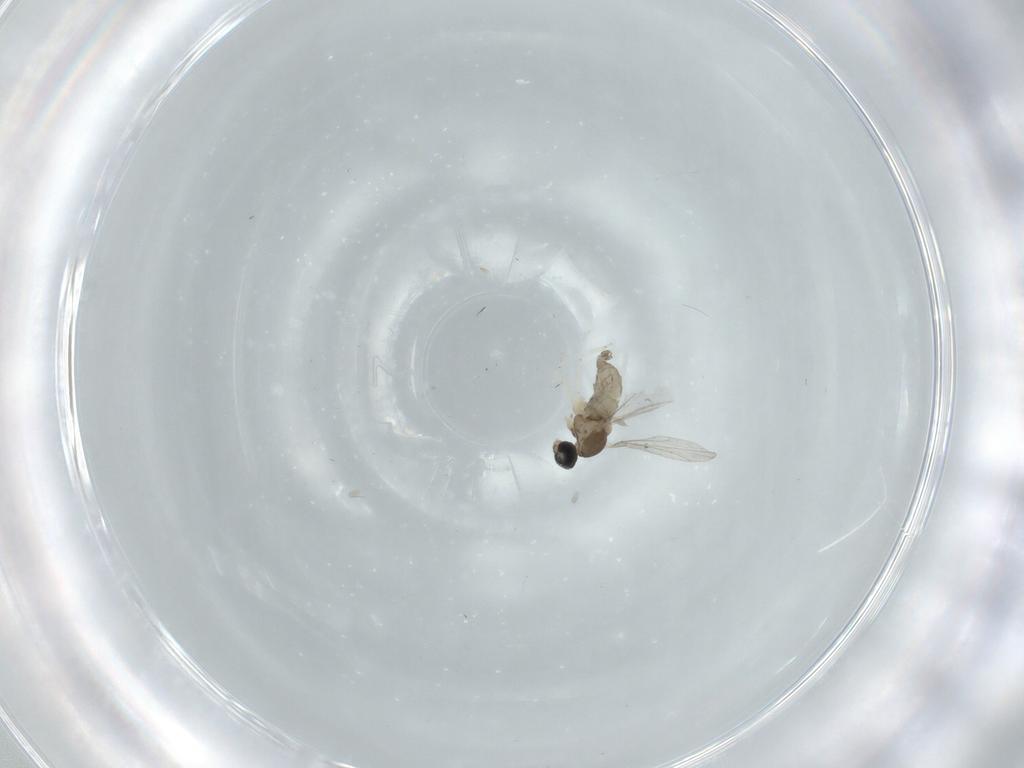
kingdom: Animalia
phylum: Arthropoda
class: Insecta
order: Diptera
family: Cecidomyiidae
